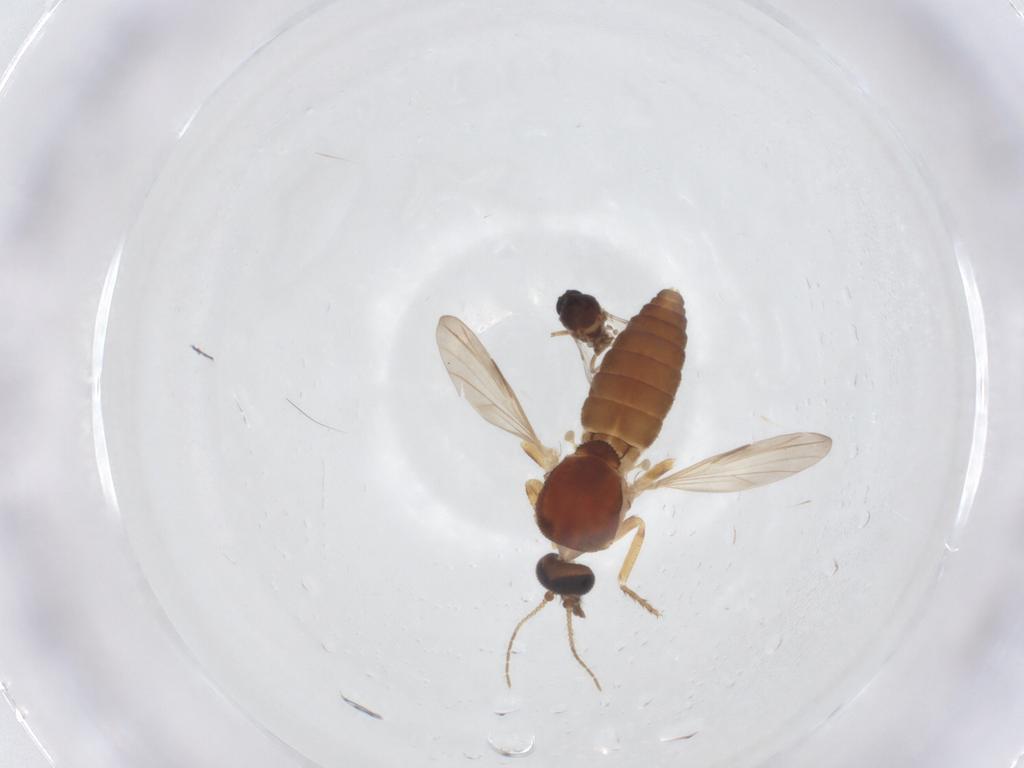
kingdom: Animalia
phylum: Arthropoda
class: Insecta
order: Diptera
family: Ceratopogonidae
